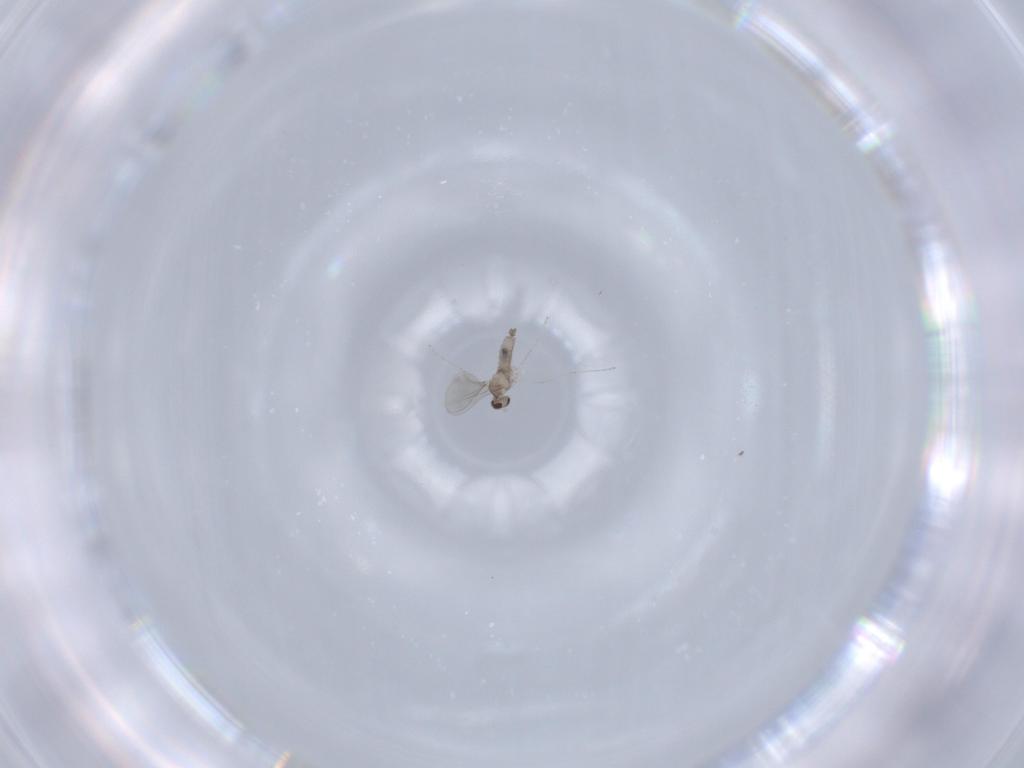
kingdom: Animalia
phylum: Arthropoda
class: Insecta
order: Diptera
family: Cecidomyiidae
